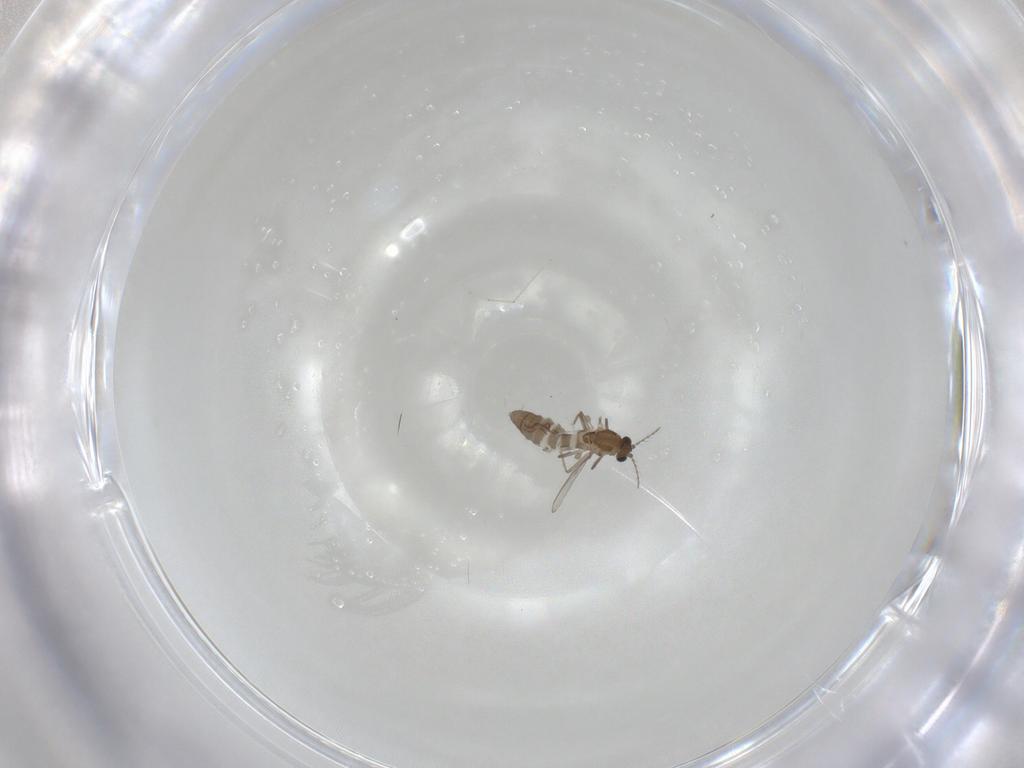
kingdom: Animalia
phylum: Arthropoda
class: Insecta
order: Diptera
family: Chironomidae
